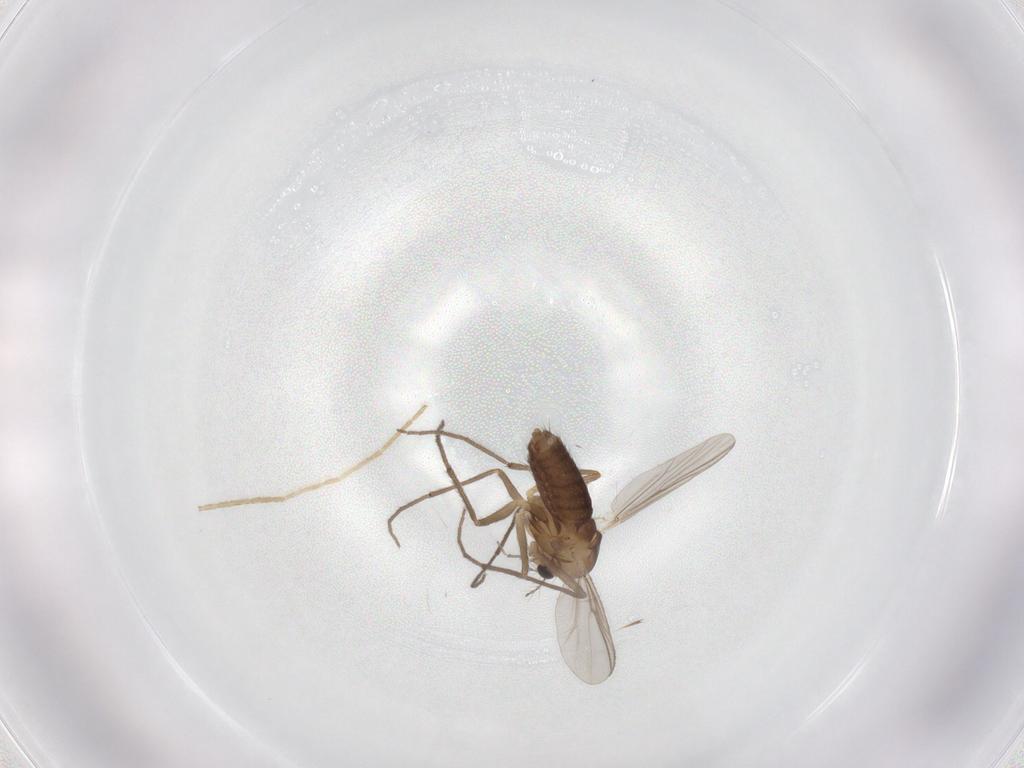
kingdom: Animalia
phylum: Arthropoda
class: Insecta
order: Diptera
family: Chironomidae
